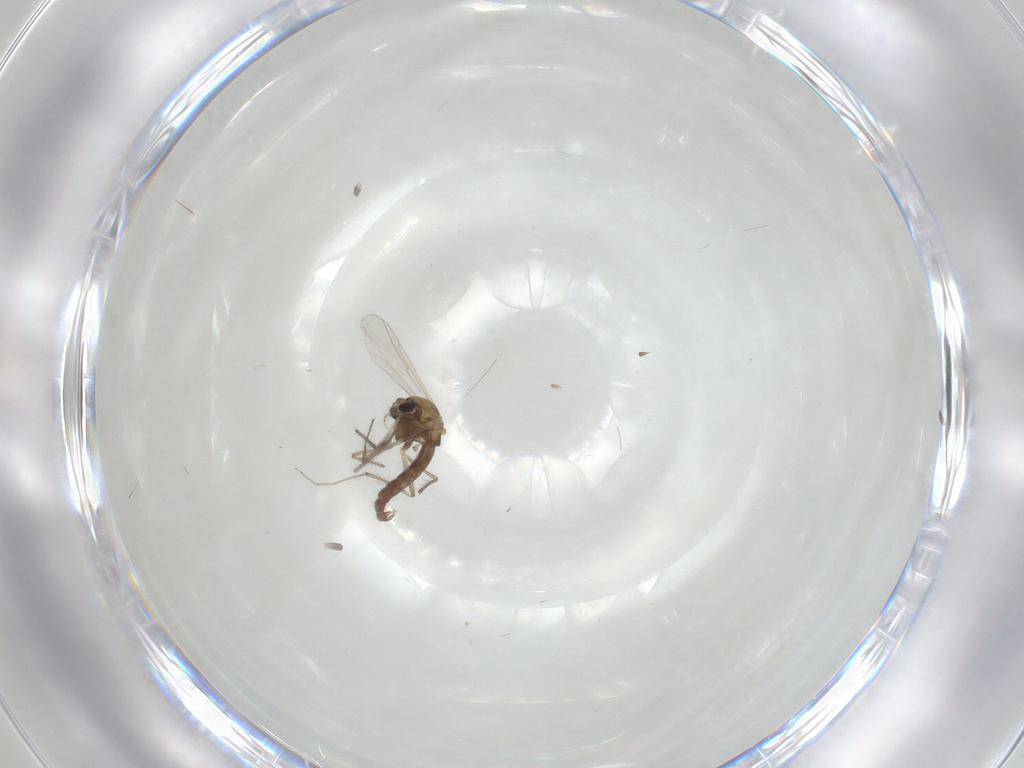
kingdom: Animalia
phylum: Arthropoda
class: Insecta
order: Diptera
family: Chironomidae
